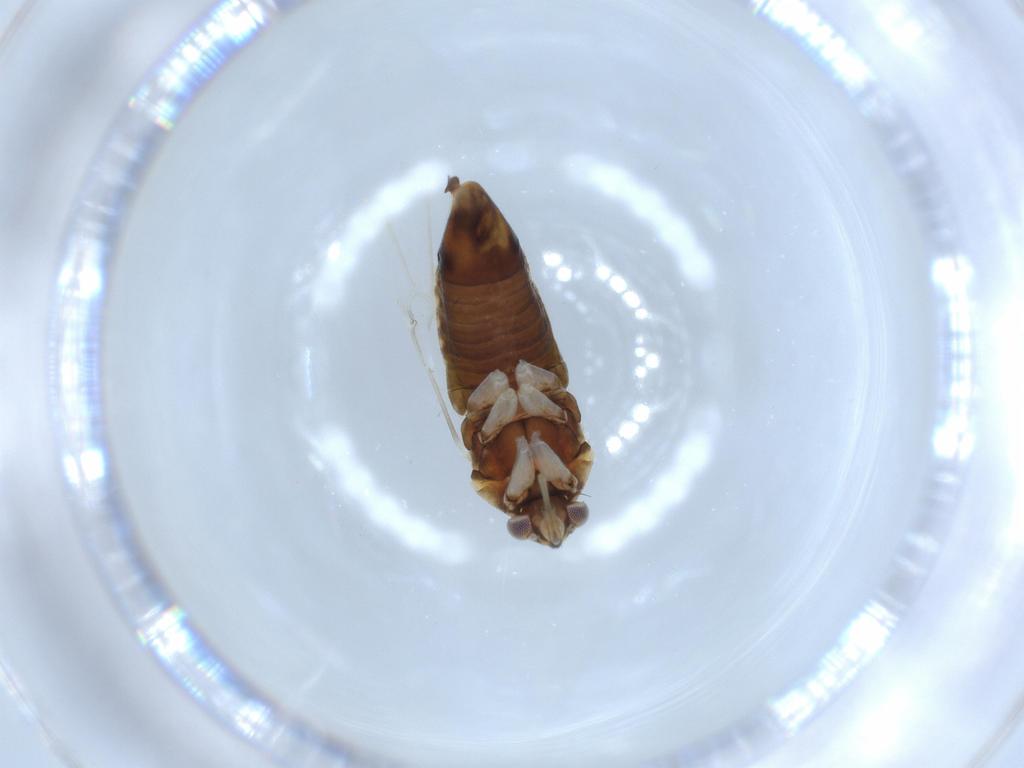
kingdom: Animalia
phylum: Arthropoda
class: Insecta
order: Hemiptera
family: Miridae
